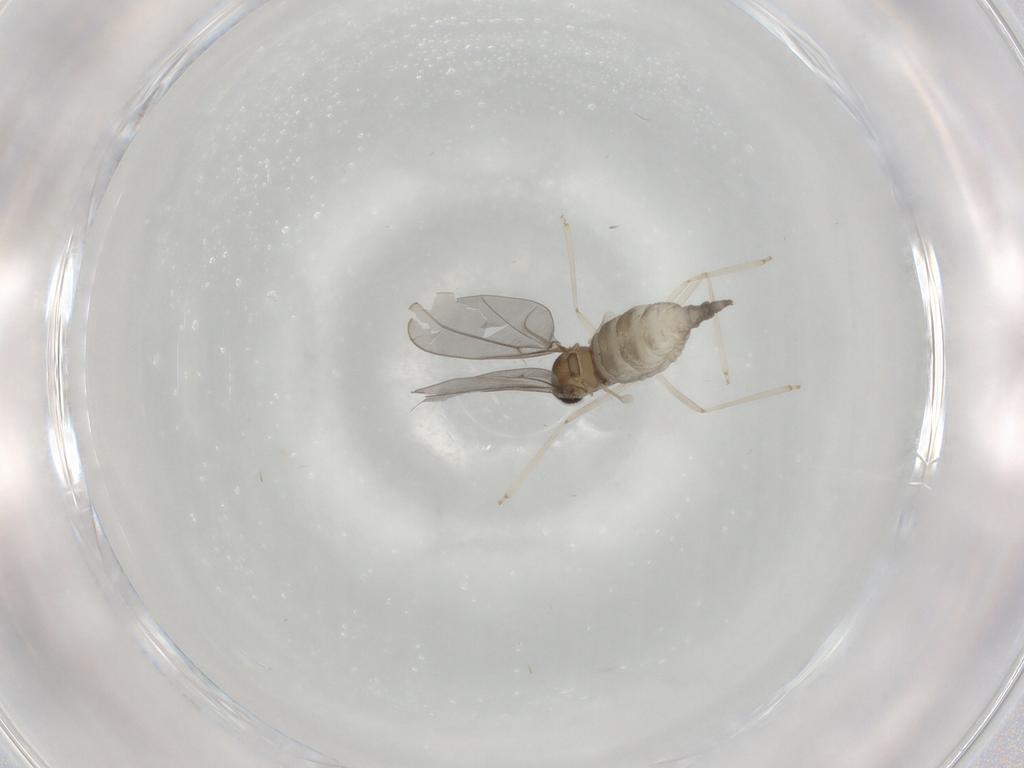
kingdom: Animalia
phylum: Arthropoda
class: Insecta
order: Diptera
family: Cecidomyiidae
